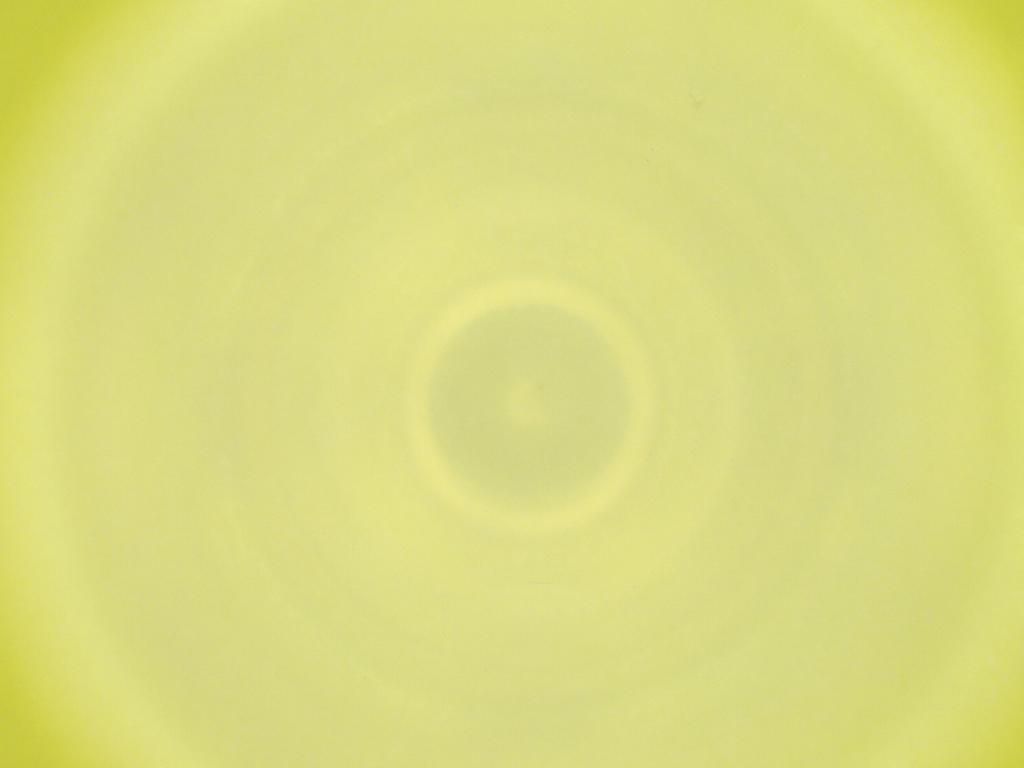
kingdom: Animalia
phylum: Arthropoda
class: Insecta
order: Diptera
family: Cecidomyiidae
